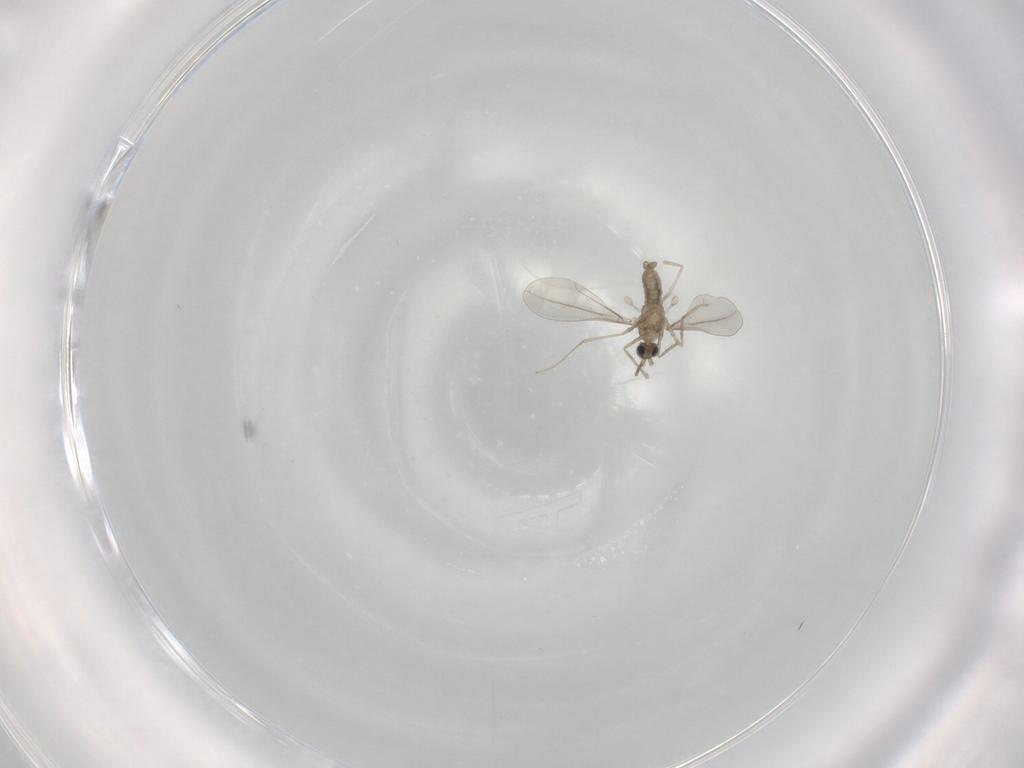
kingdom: Animalia
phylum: Arthropoda
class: Insecta
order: Diptera
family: Cecidomyiidae
